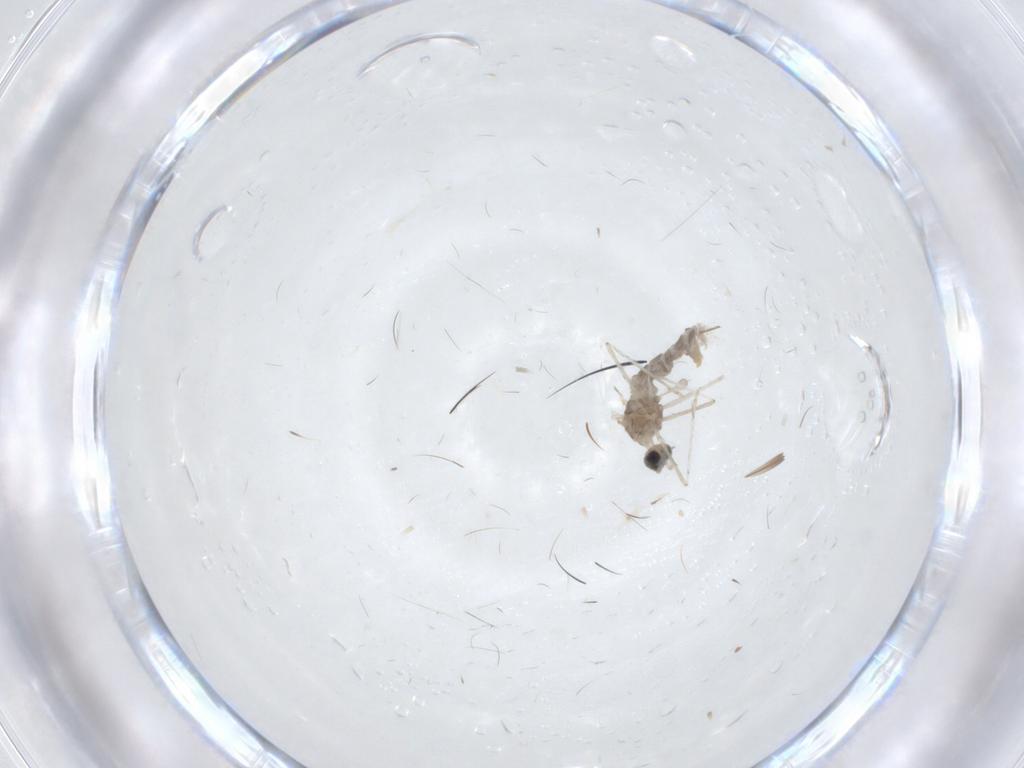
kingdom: Animalia
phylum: Arthropoda
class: Insecta
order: Diptera
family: Cecidomyiidae
